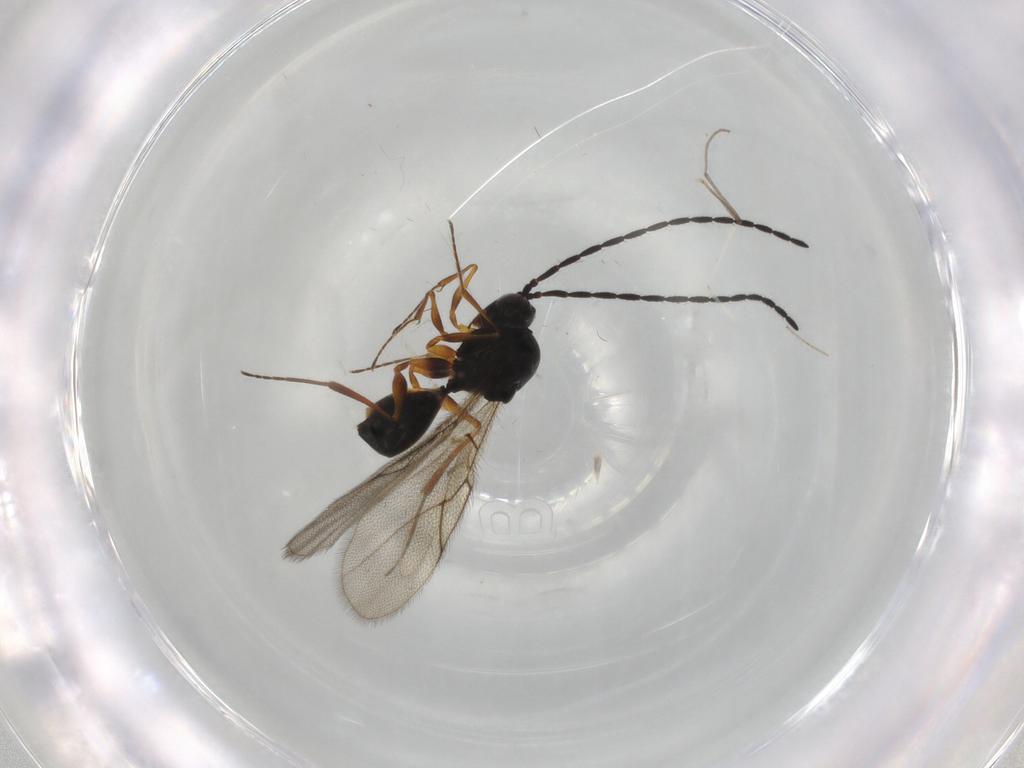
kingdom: Animalia
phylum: Arthropoda
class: Insecta
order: Hymenoptera
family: Figitidae
